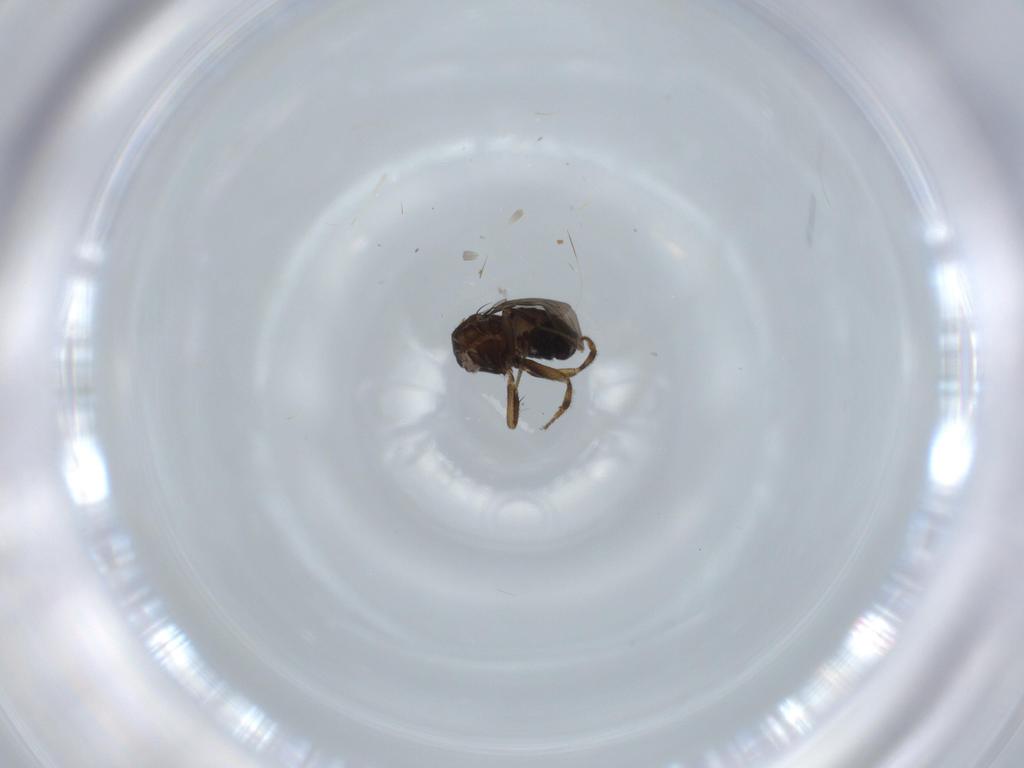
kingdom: Animalia
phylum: Arthropoda
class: Insecta
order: Diptera
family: Sphaeroceridae
